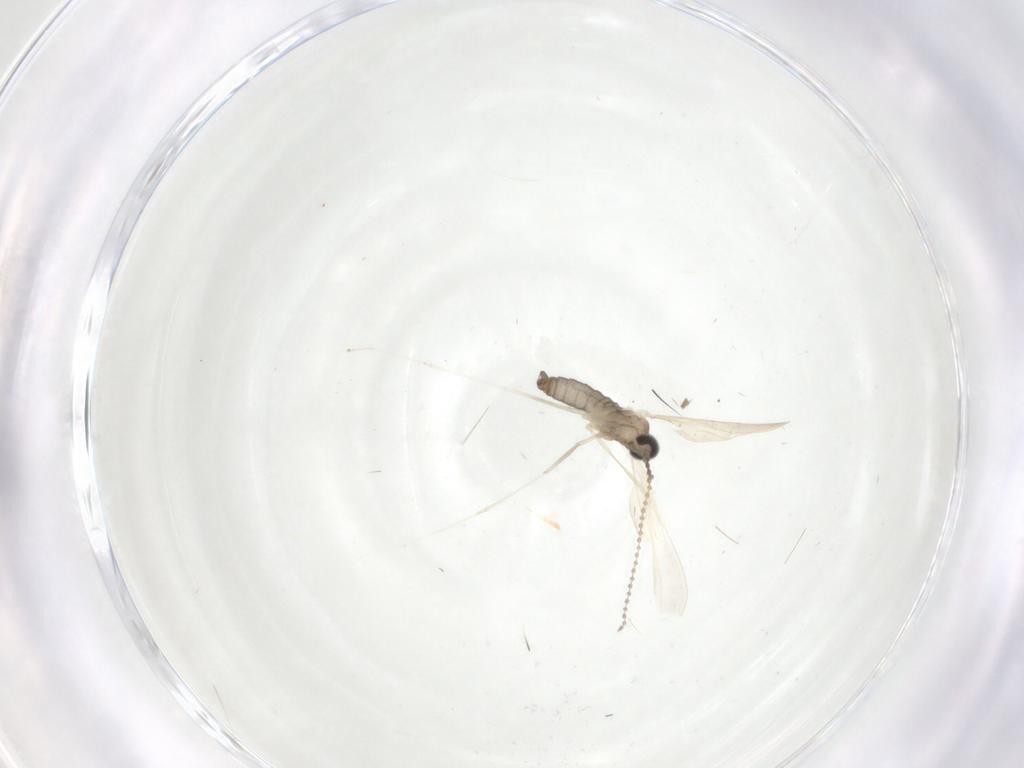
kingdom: Animalia
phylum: Arthropoda
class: Insecta
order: Diptera
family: Cecidomyiidae
